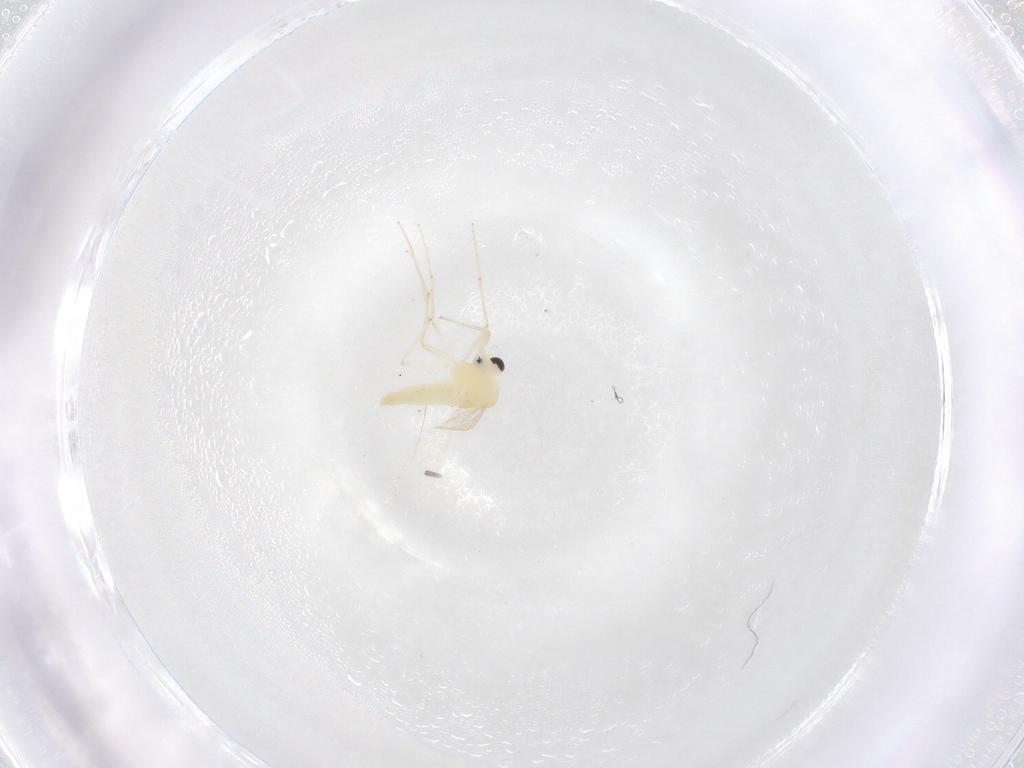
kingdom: Animalia
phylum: Arthropoda
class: Insecta
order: Diptera
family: Chironomidae
